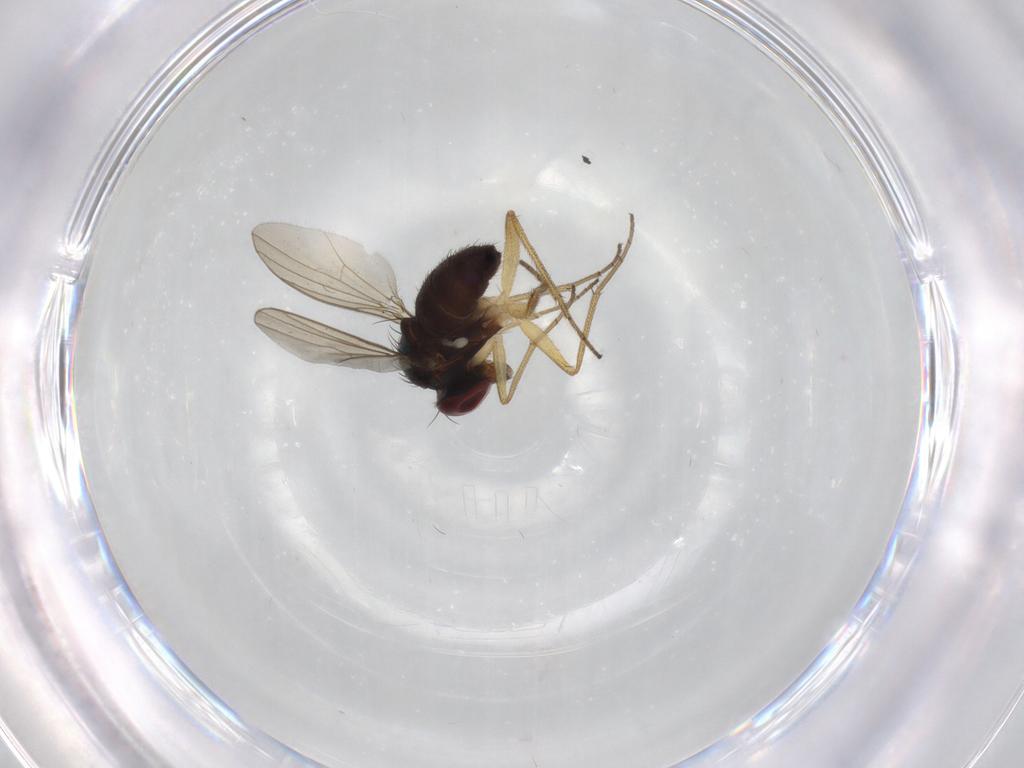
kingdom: Animalia
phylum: Arthropoda
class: Insecta
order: Diptera
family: Dolichopodidae
